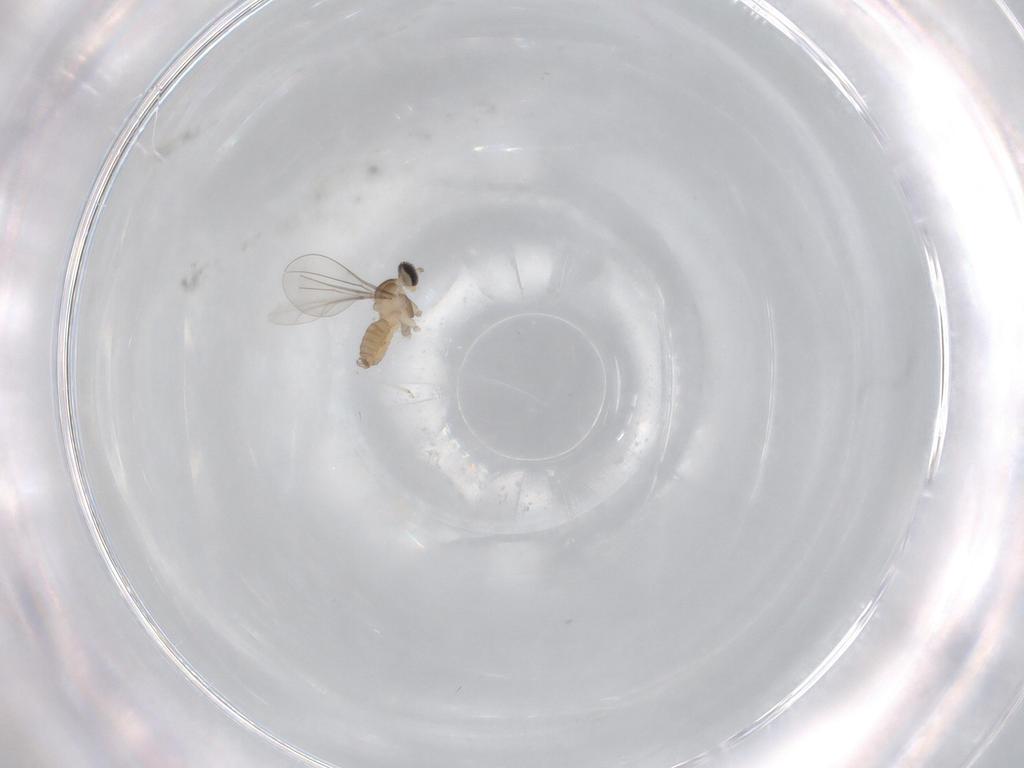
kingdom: Animalia
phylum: Arthropoda
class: Insecta
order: Diptera
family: Cecidomyiidae
